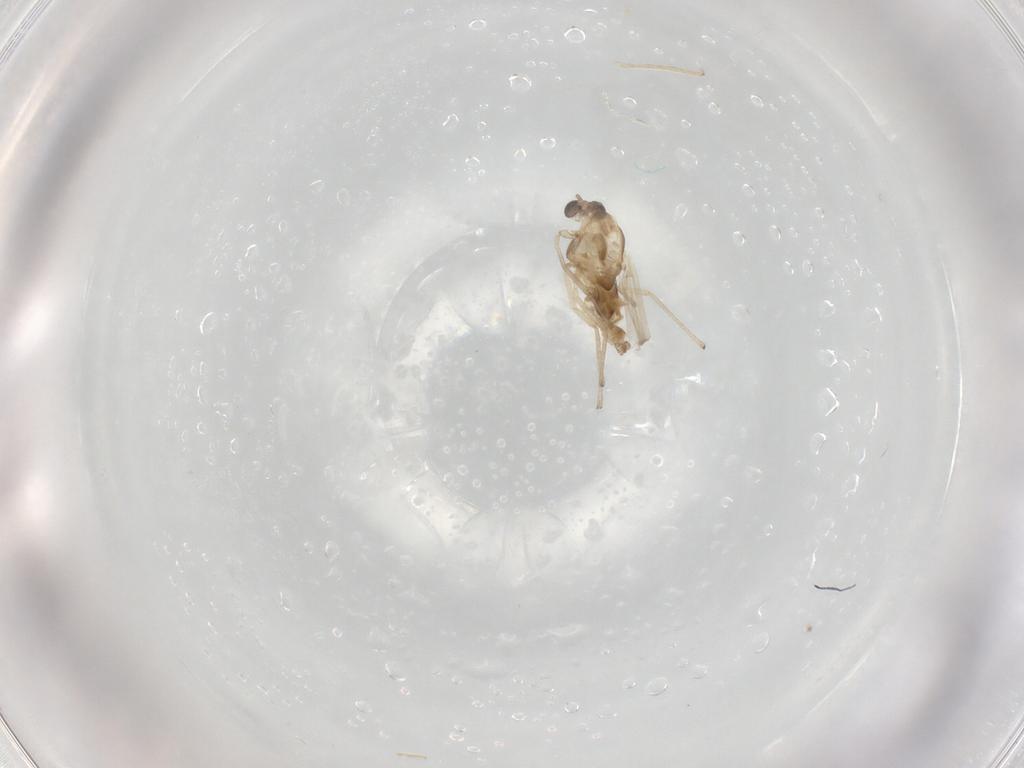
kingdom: Animalia
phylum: Arthropoda
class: Insecta
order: Diptera
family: Chironomidae
